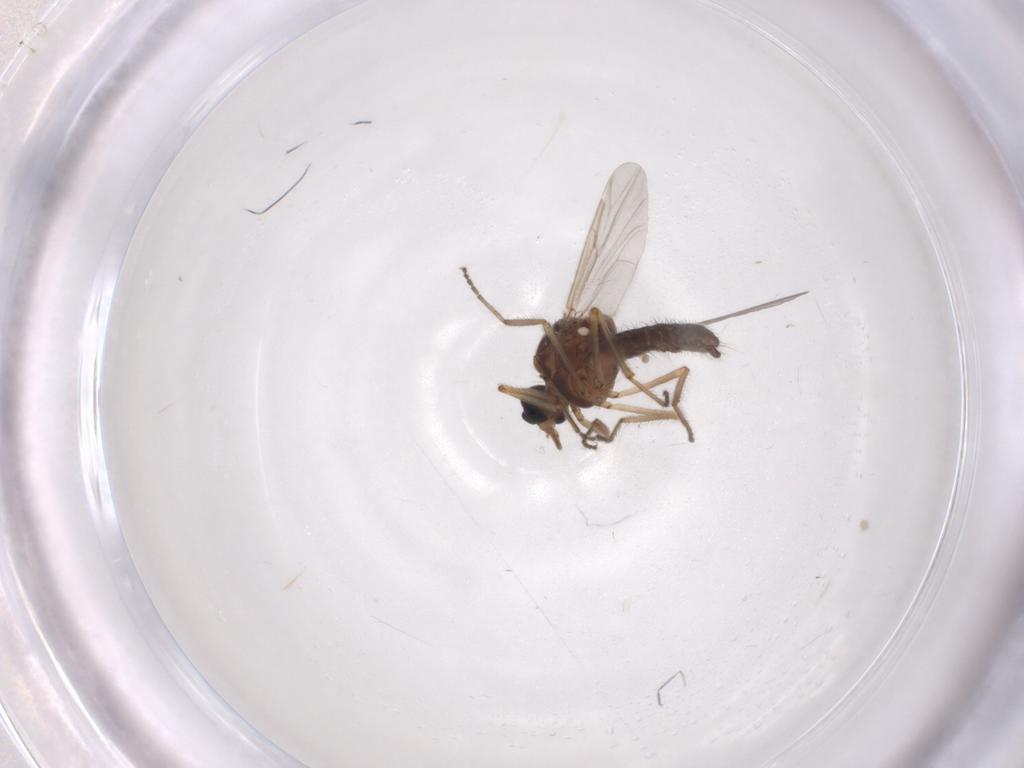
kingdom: Animalia
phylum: Arthropoda
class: Insecta
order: Diptera
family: Ceratopogonidae
